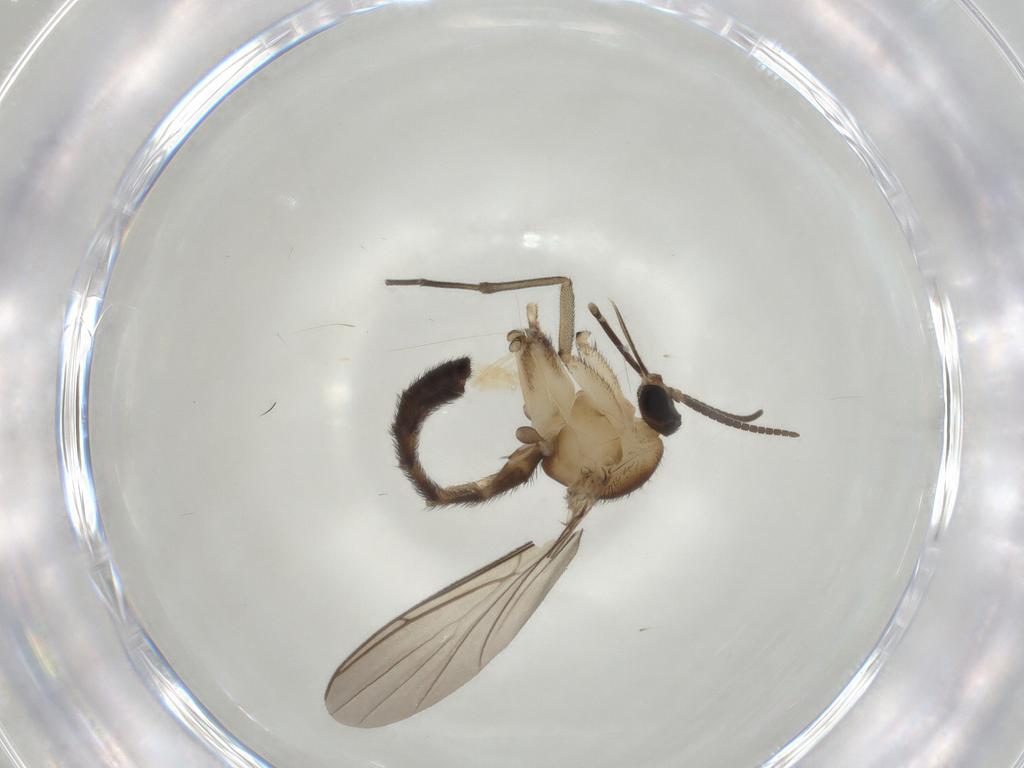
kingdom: Animalia
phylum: Arthropoda
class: Insecta
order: Diptera
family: Keroplatidae
